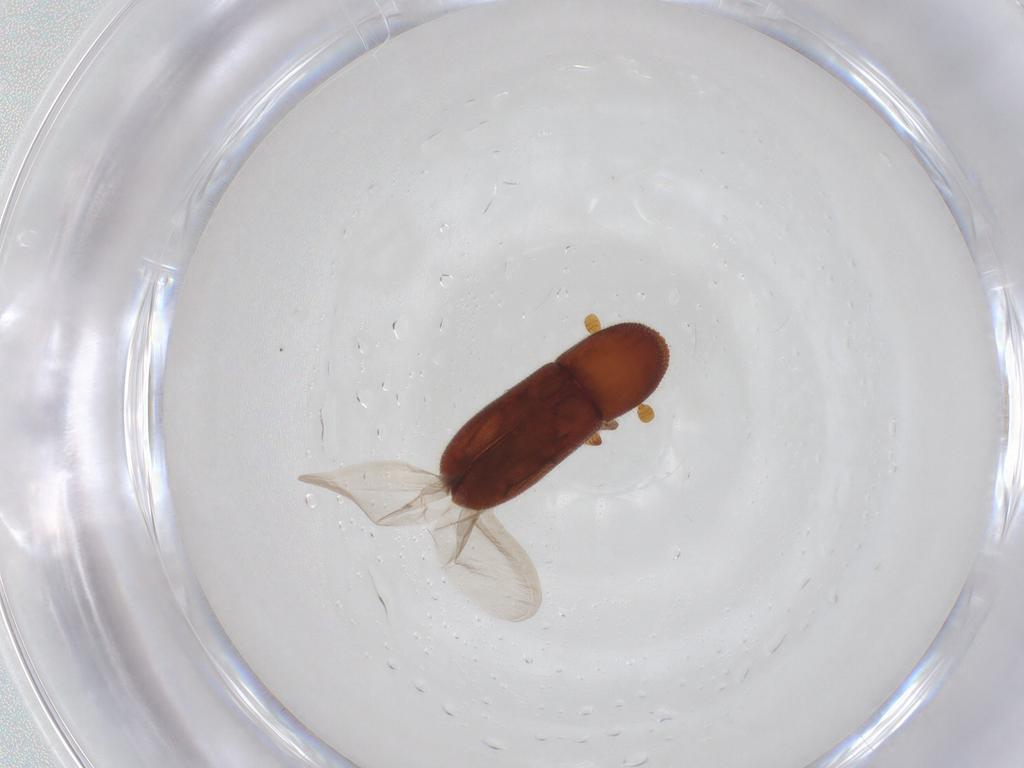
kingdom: Animalia
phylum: Arthropoda
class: Insecta
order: Coleoptera
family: Curculionidae
